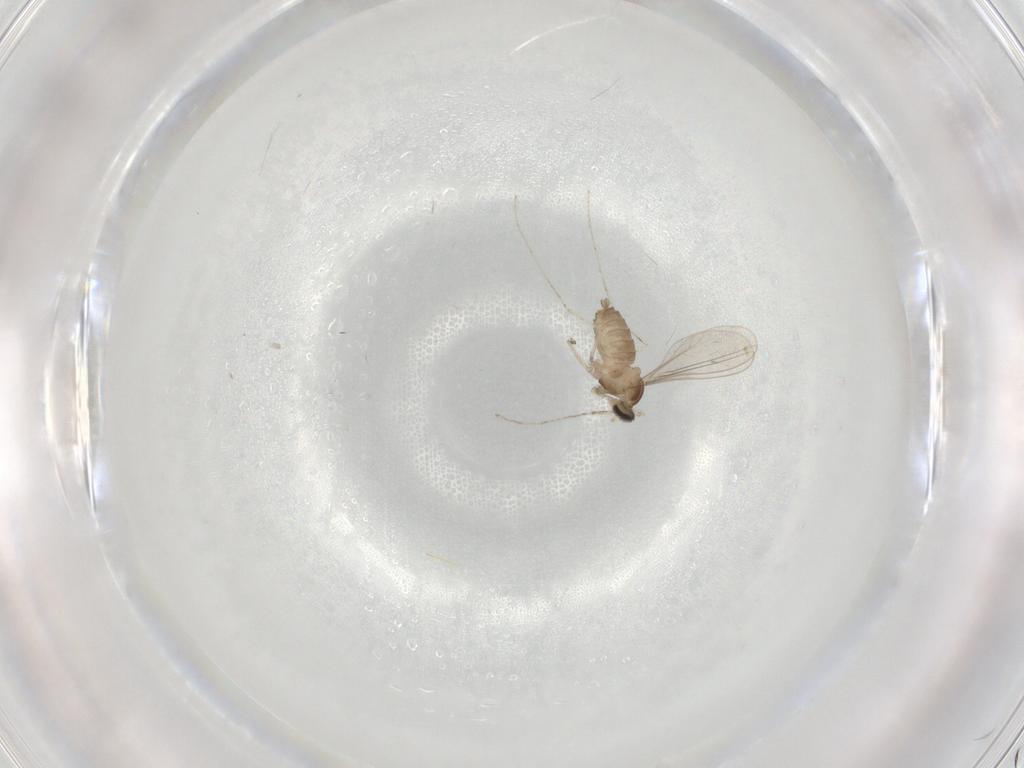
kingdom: Animalia
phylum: Arthropoda
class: Insecta
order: Diptera
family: Cecidomyiidae
